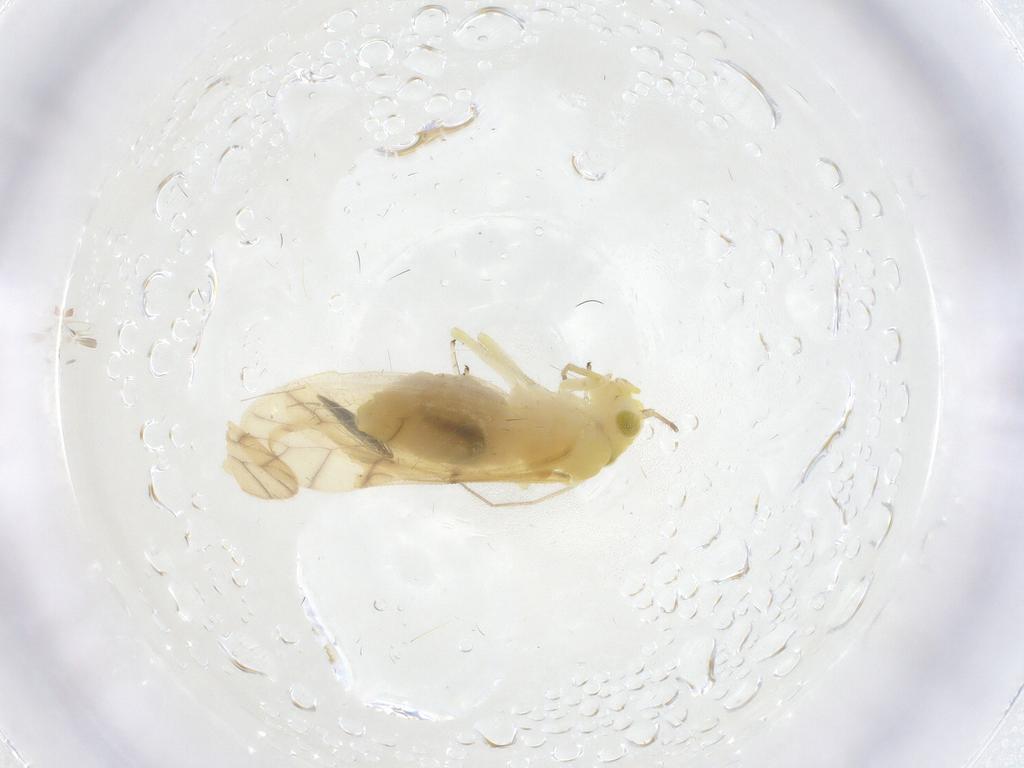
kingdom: Animalia
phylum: Arthropoda
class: Insecta
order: Psocodea
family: Caeciliusidae
